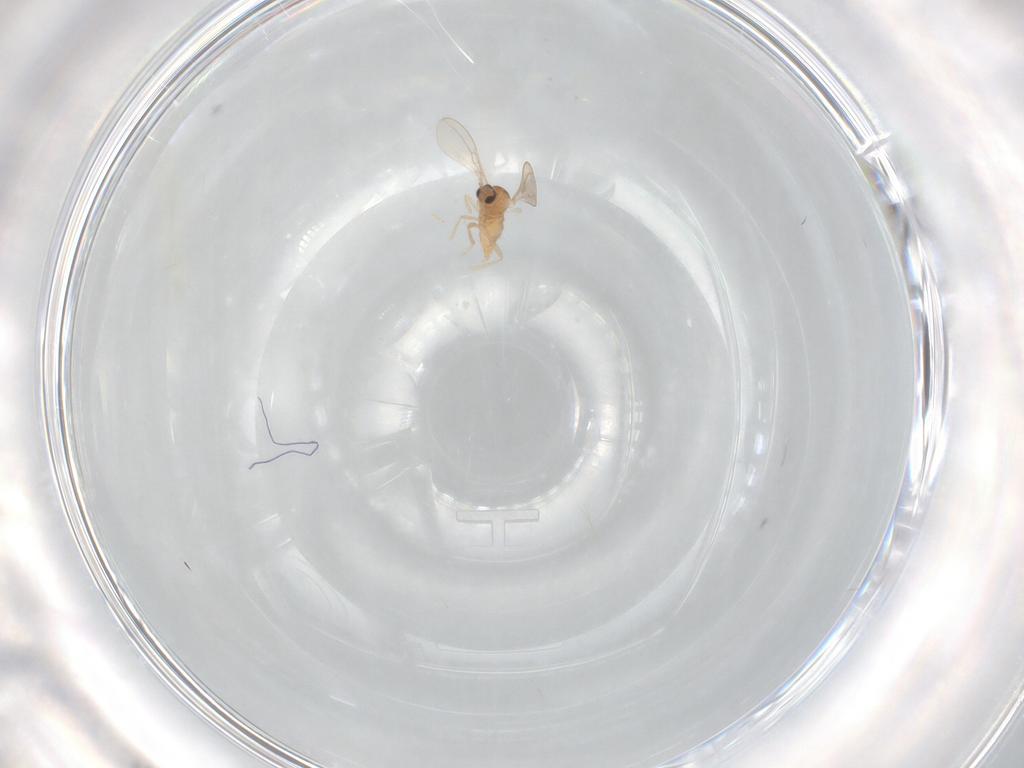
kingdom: Animalia
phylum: Arthropoda
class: Insecta
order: Diptera
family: Cecidomyiidae
